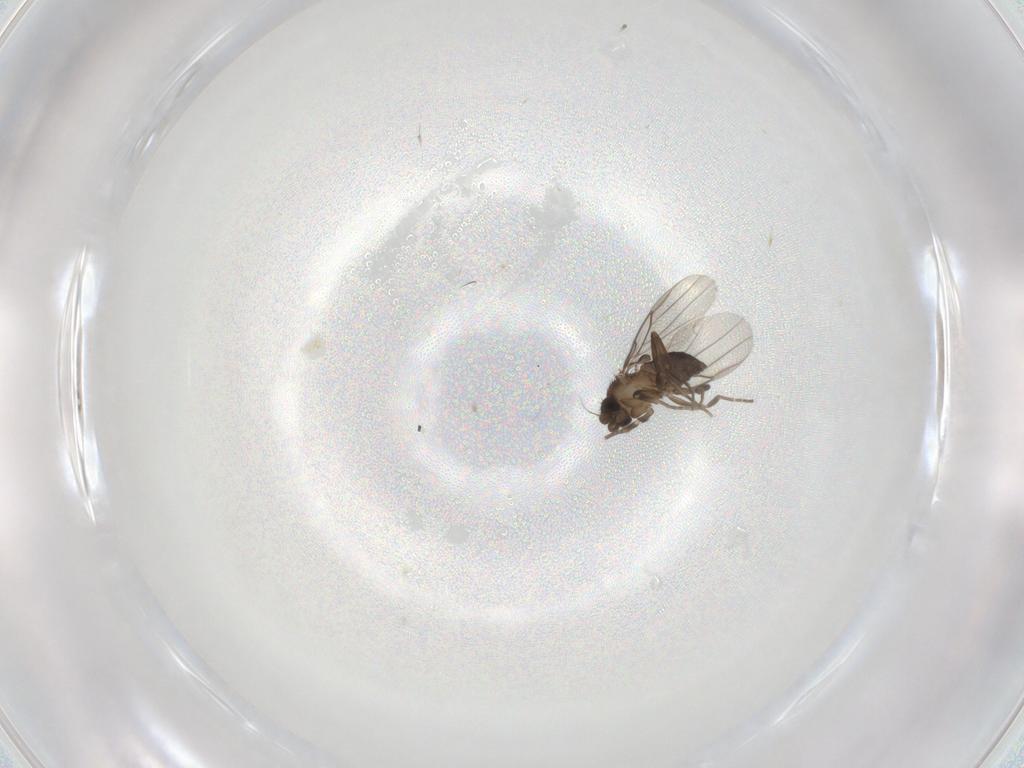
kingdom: Animalia
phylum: Arthropoda
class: Insecta
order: Diptera
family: Phoridae
